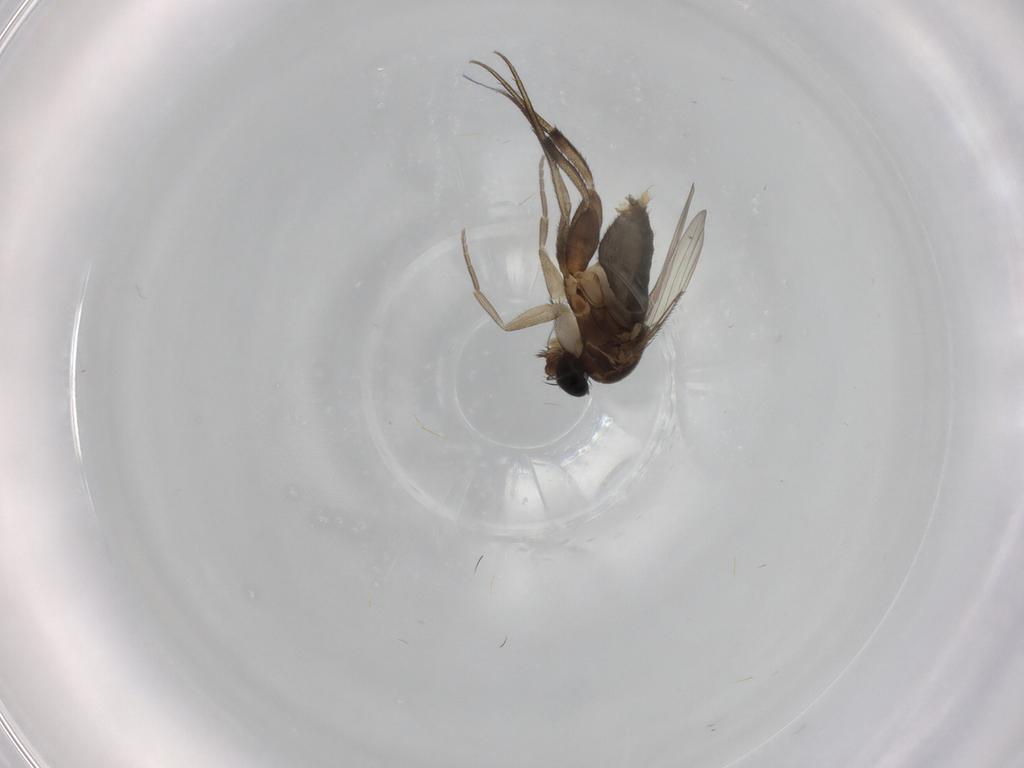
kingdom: Animalia
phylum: Arthropoda
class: Insecta
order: Diptera
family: Phoridae
